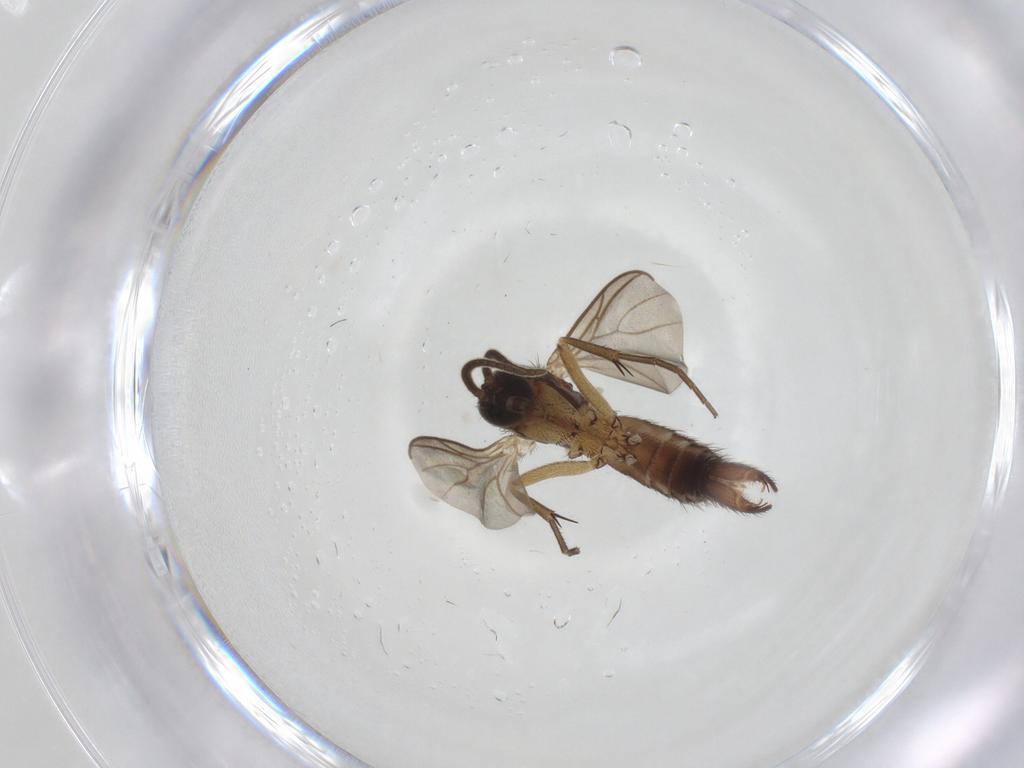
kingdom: Animalia
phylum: Arthropoda
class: Insecta
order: Diptera
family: Mycetophilidae
